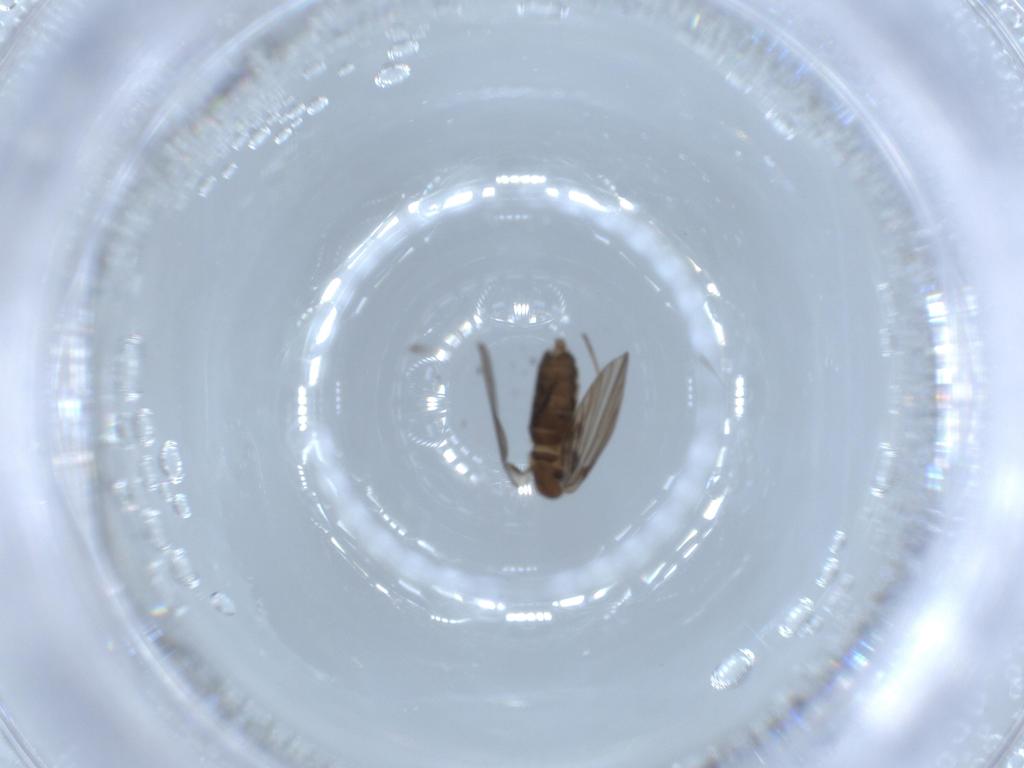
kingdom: Animalia
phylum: Arthropoda
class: Insecta
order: Diptera
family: Psychodidae
